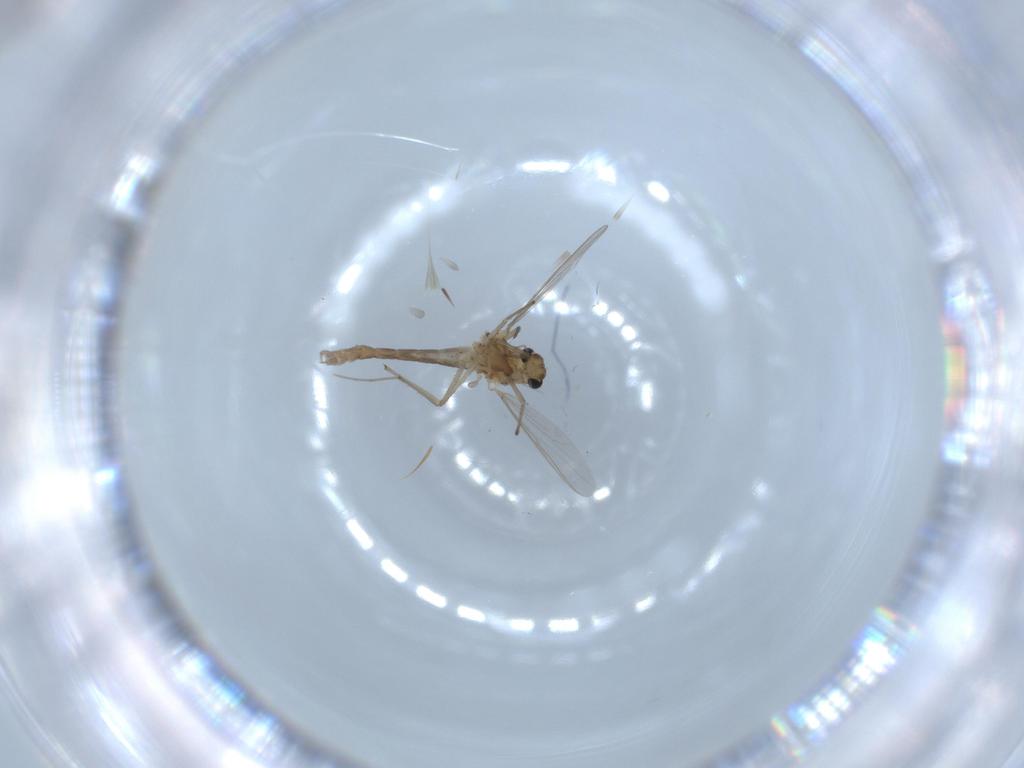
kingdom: Animalia
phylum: Arthropoda
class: Insecta
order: Diptera
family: Chironomidae
